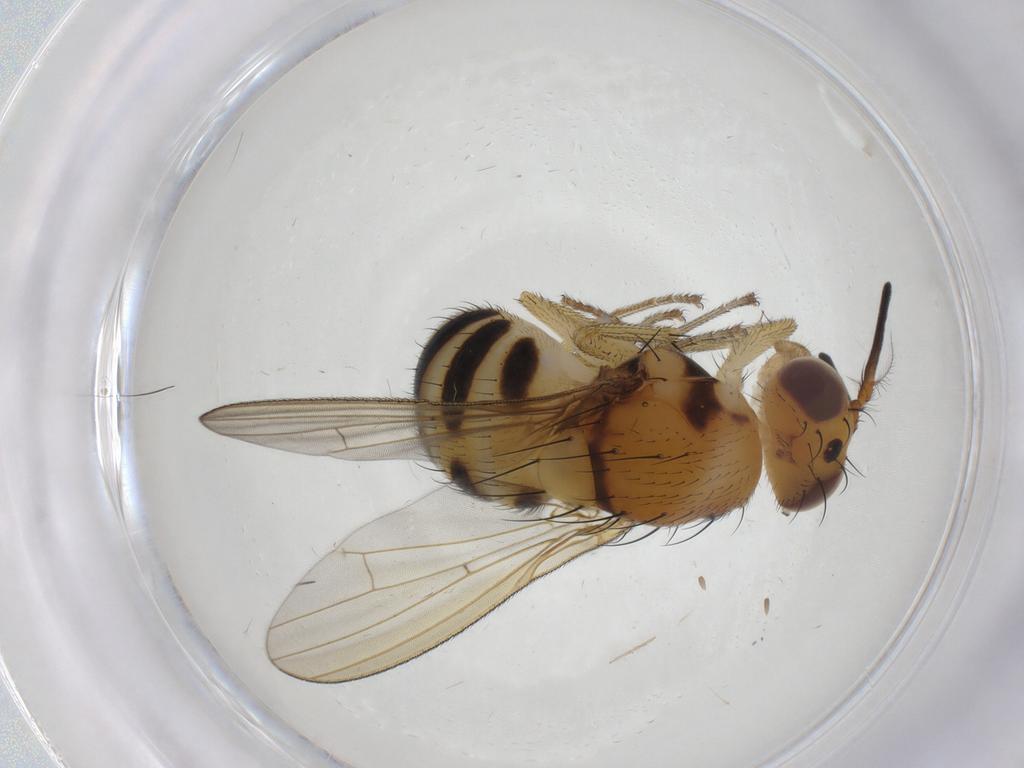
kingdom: Animalia
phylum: Arthropoda
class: Insecta
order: Diptera
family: Lauxaniidae
